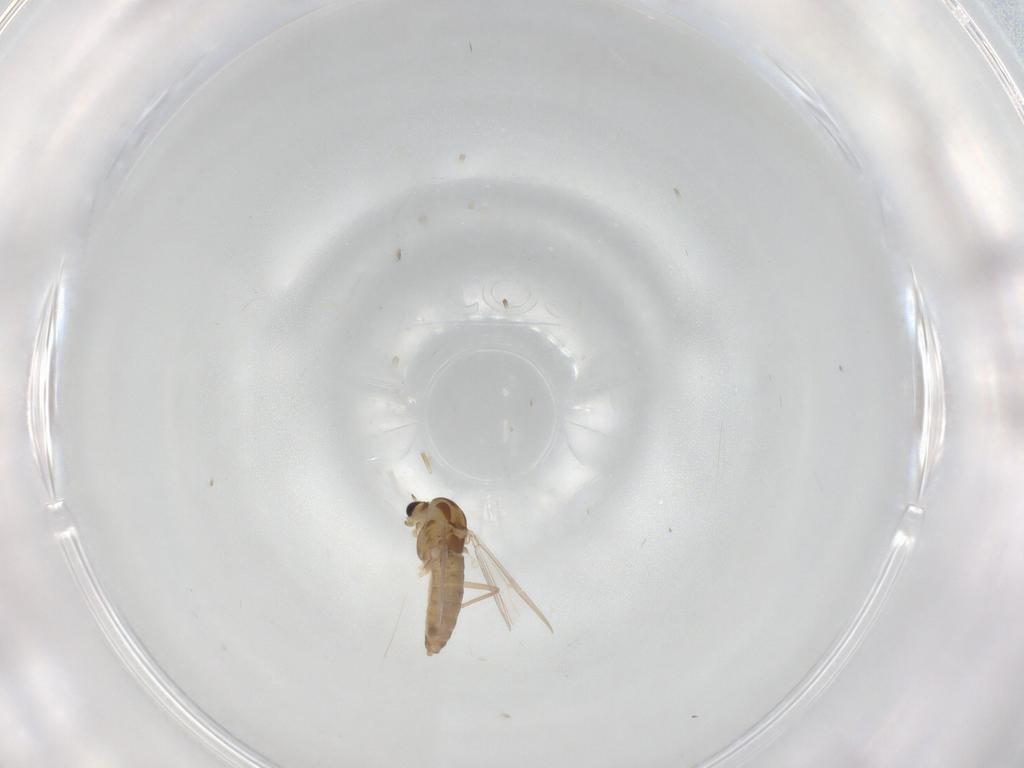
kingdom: Animalia
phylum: Arthropoda
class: Insecta
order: Diptera
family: Chironomidae
